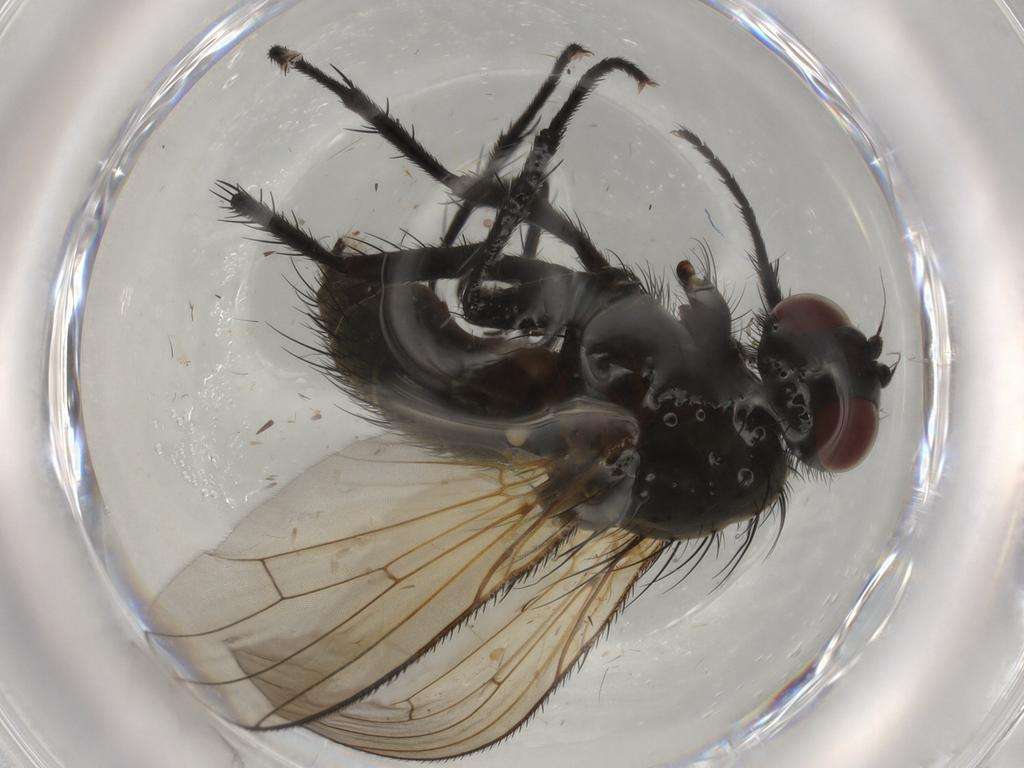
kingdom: Animalia
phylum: Arthropoda
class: Insecta
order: Diptera
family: Anthomyiidae
